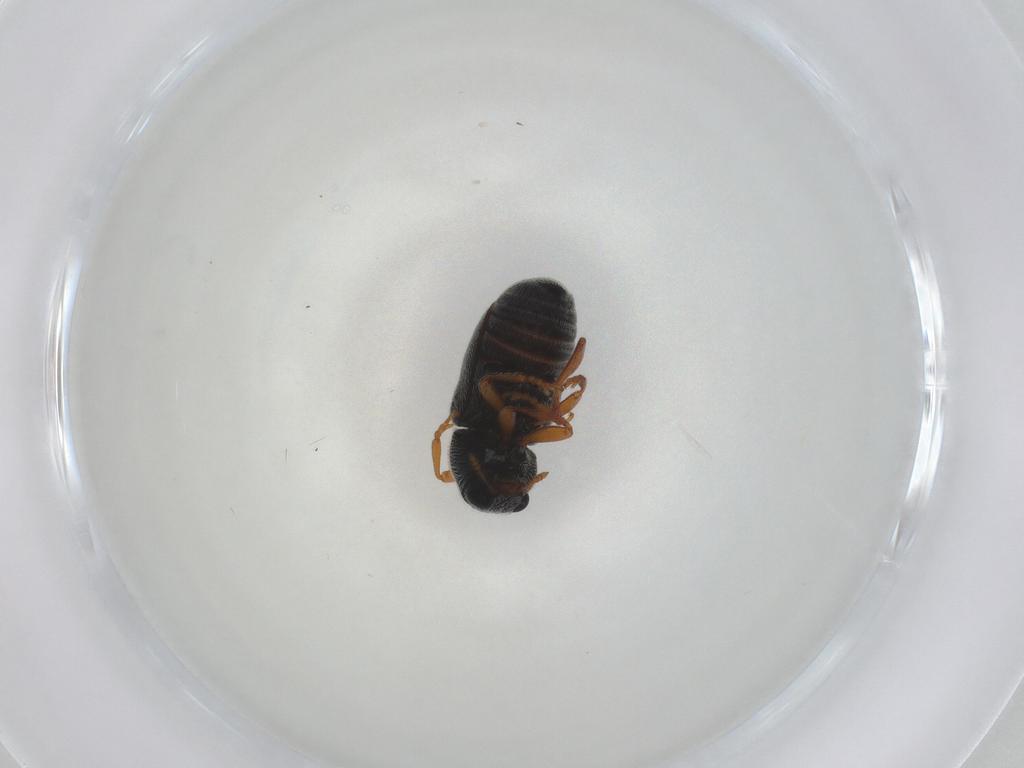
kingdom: Animalia
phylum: Arthropoda
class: Insecta
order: Coleoptera
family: Anthribidae
